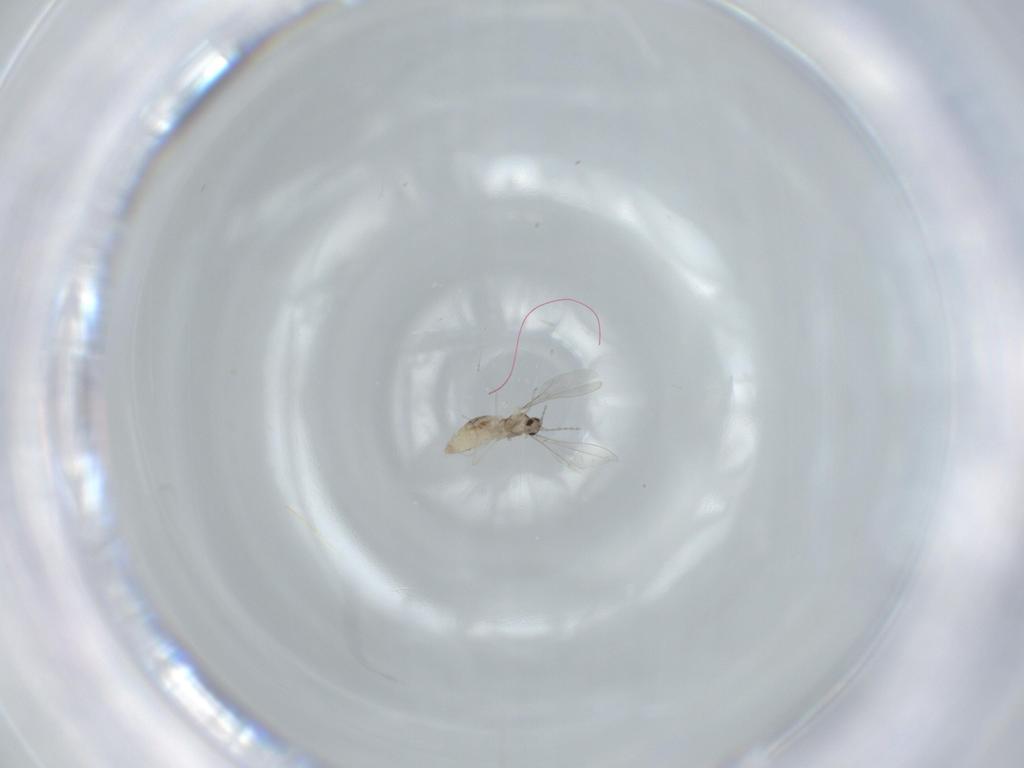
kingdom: Animalia
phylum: Arthropoda
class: Insecta
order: Diptera
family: Cecidomyiidae
